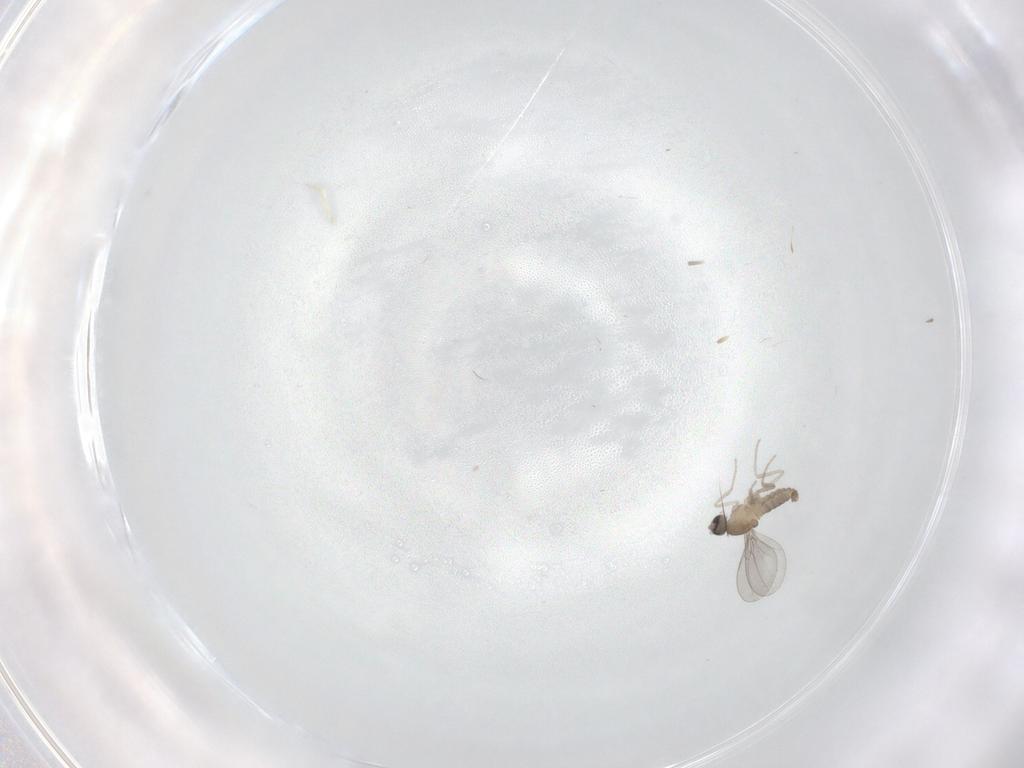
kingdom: Animalia
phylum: Arthropoda
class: Insecta
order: Diptera
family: Cecidomyiidae
